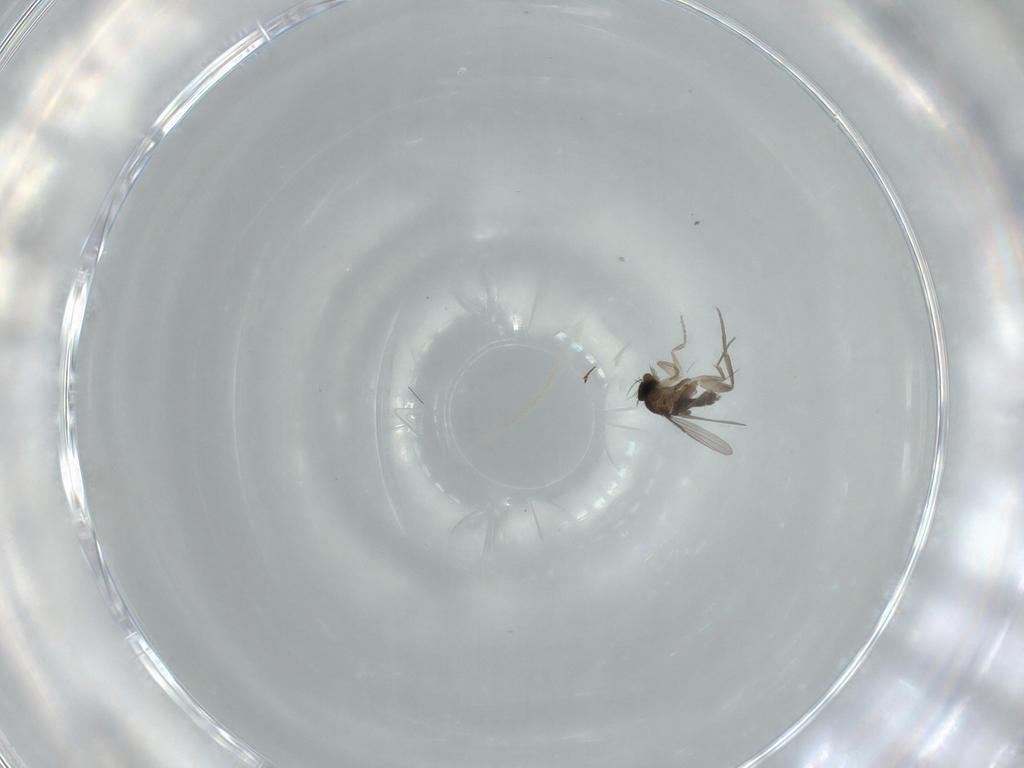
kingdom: Animalia
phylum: Arthropoda
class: Insecta
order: Diptera
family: Phoridae
